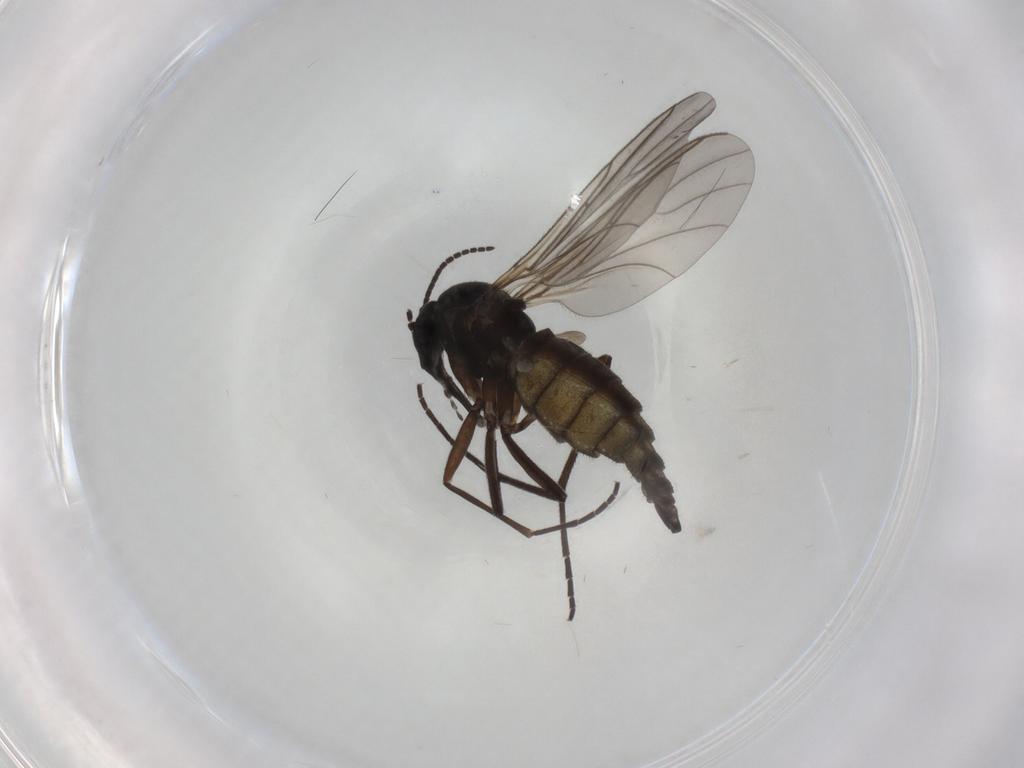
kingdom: Animalia
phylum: Arthropoda
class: Insecta
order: Diptera
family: Sciaridae
